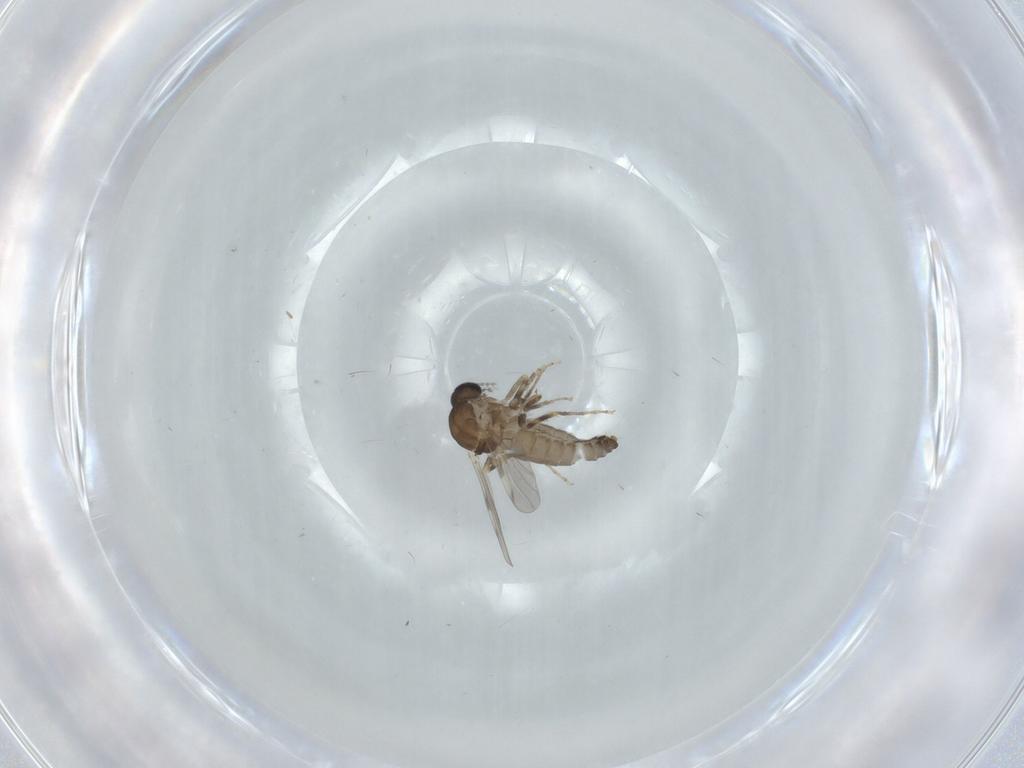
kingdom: Animalia
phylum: Arthropoda
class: Insecta
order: Diptera
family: Ceratopogonidae
